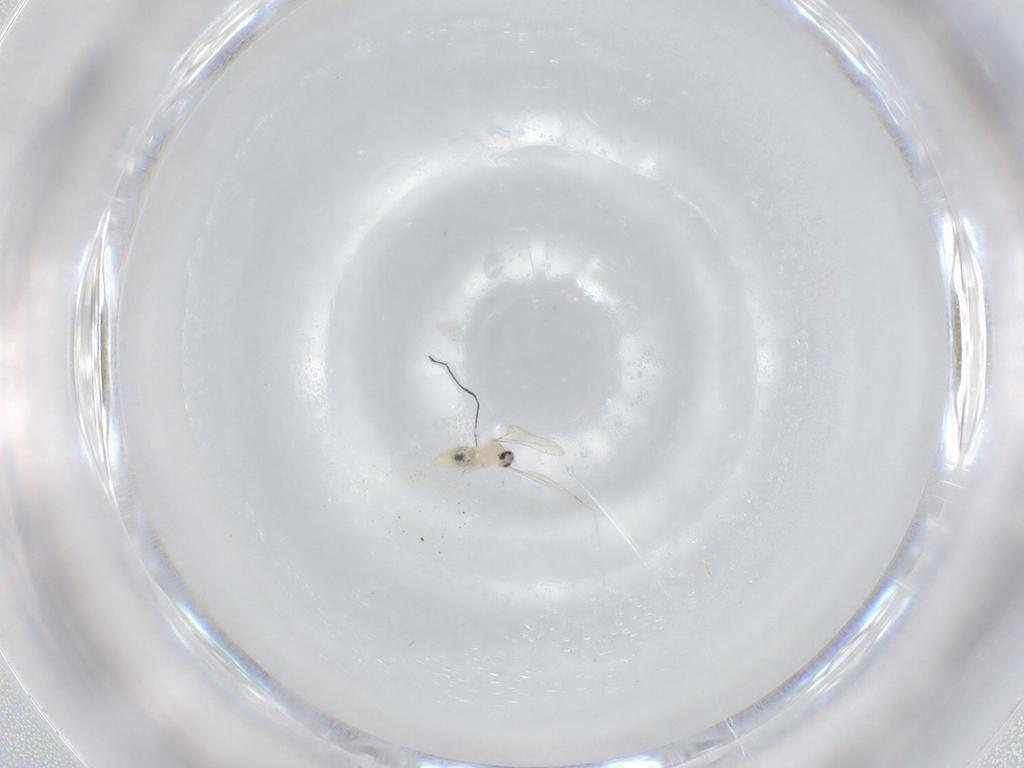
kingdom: Animalia
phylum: Arthropoda
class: Insecta
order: Diptera
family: Cecidomyiidae
